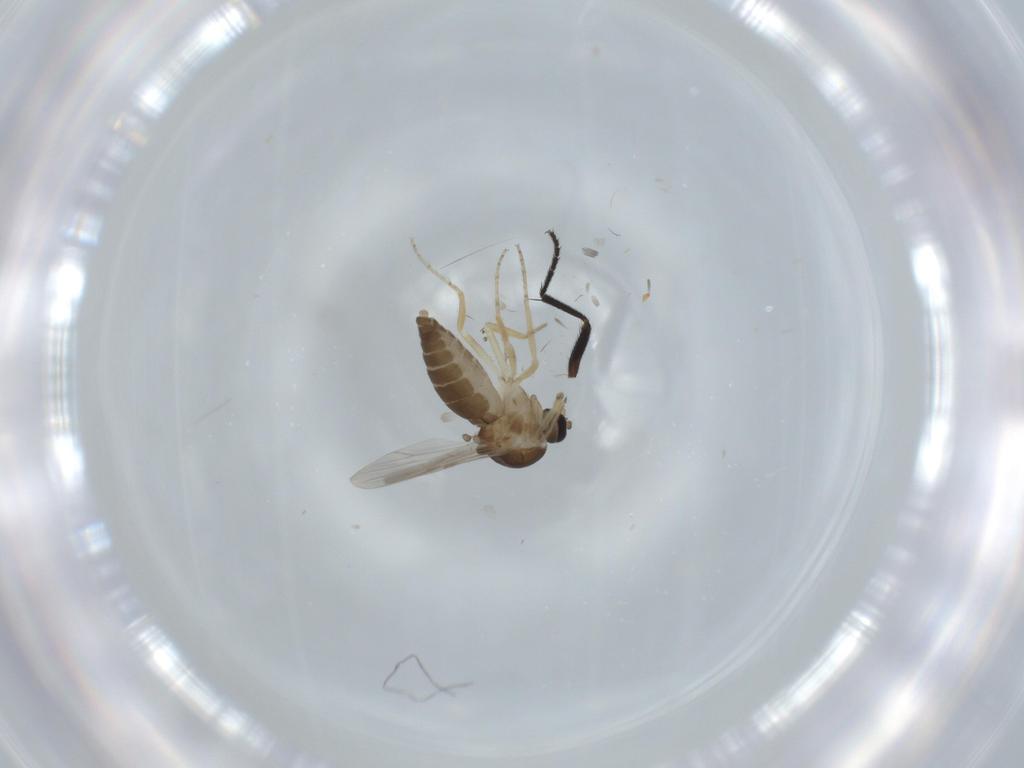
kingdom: Animalia
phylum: Arthropoda
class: Insecta
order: Diptera
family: Ceratopogonidae
